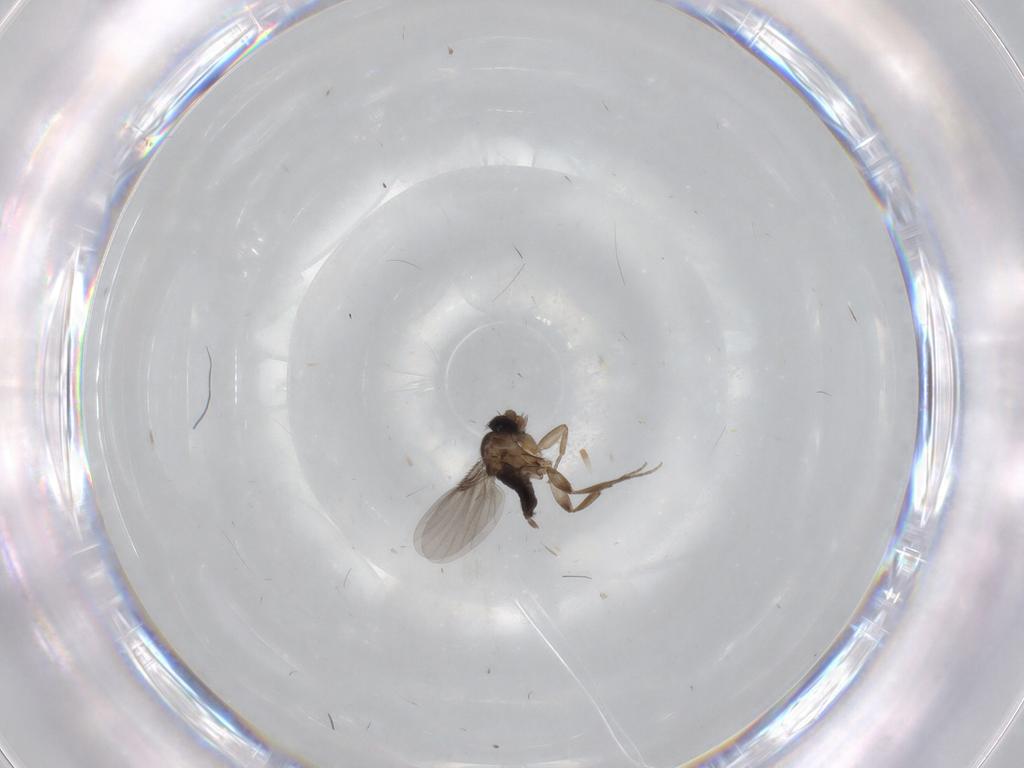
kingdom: Animalia
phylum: Arthropoda
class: Insecta
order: Diptera
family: Phoridae
